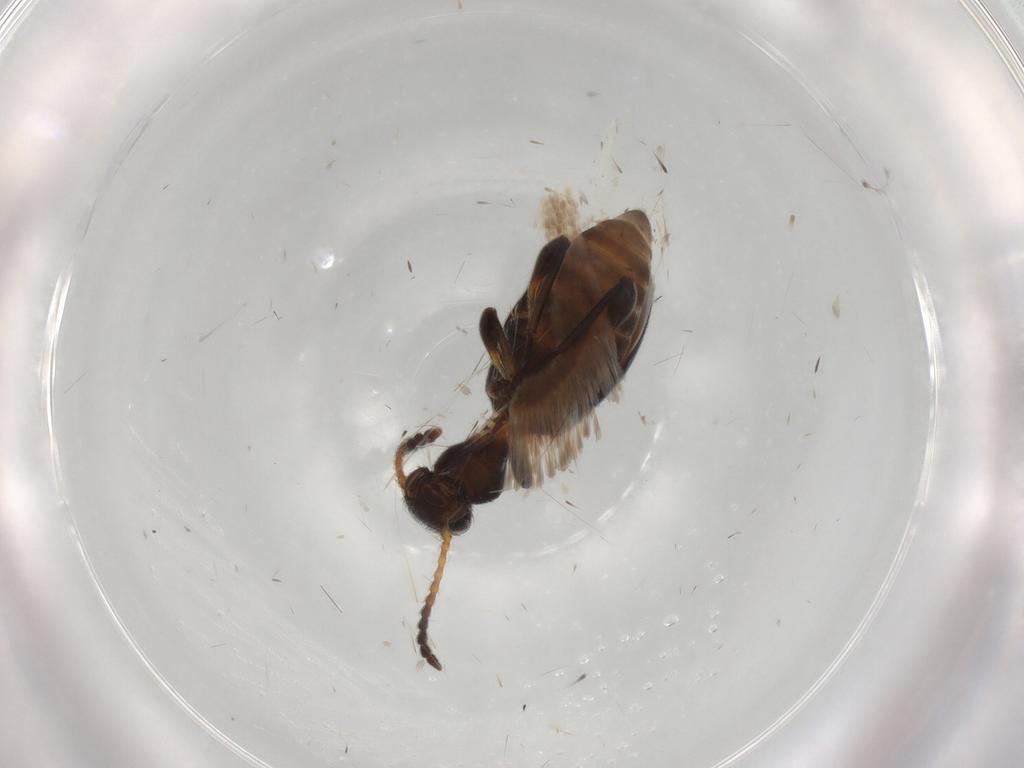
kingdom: Animalia
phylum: Arthropoda
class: Insecta
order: Coleoptera
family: Anthicidae
